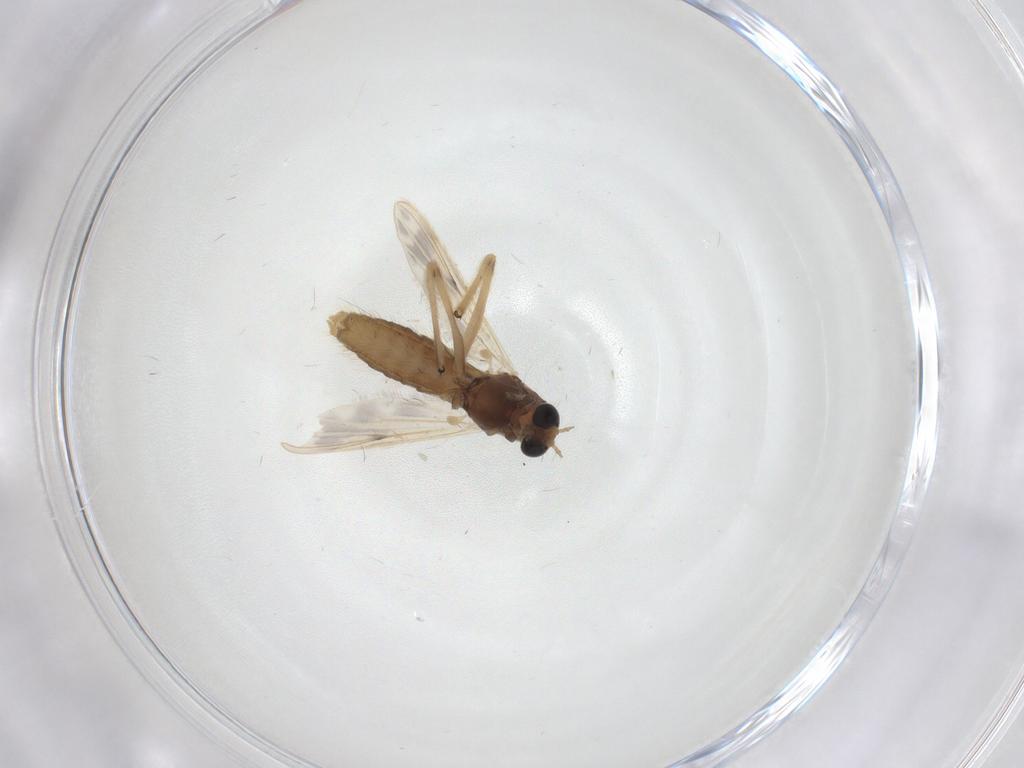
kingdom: Animalia
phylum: Arthropoda
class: Insecta
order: Diptera
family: Chironomidae
